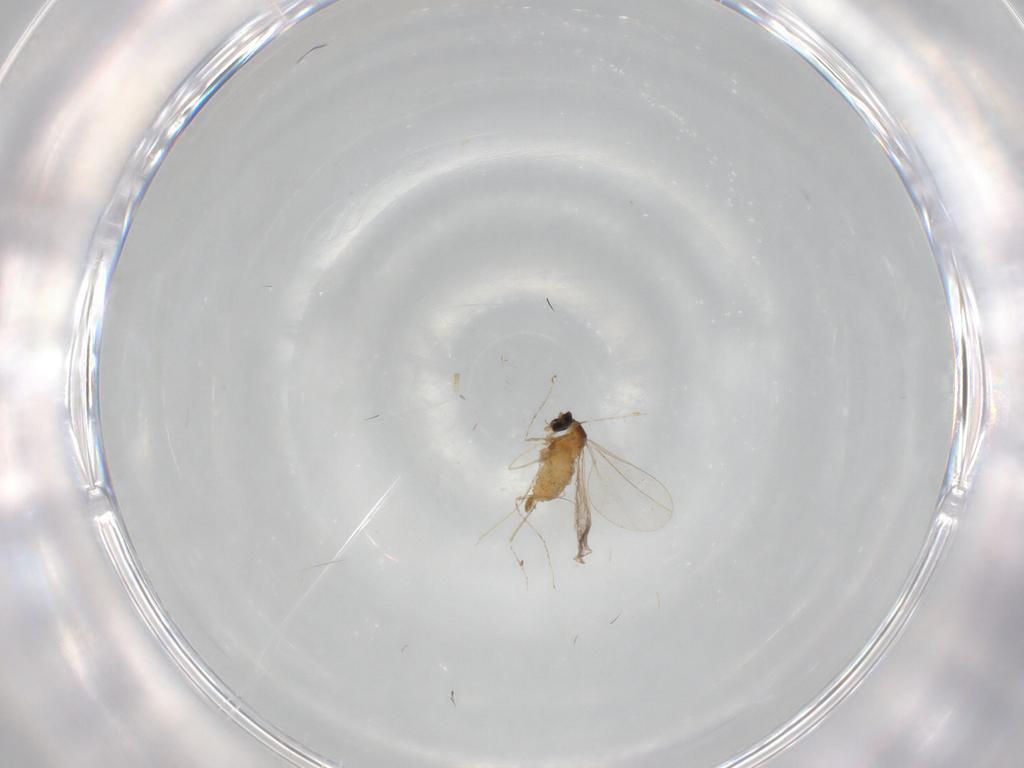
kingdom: Animalia
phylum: Arthropoda
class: Insecta
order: Diptera
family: Cecidomyiidae
